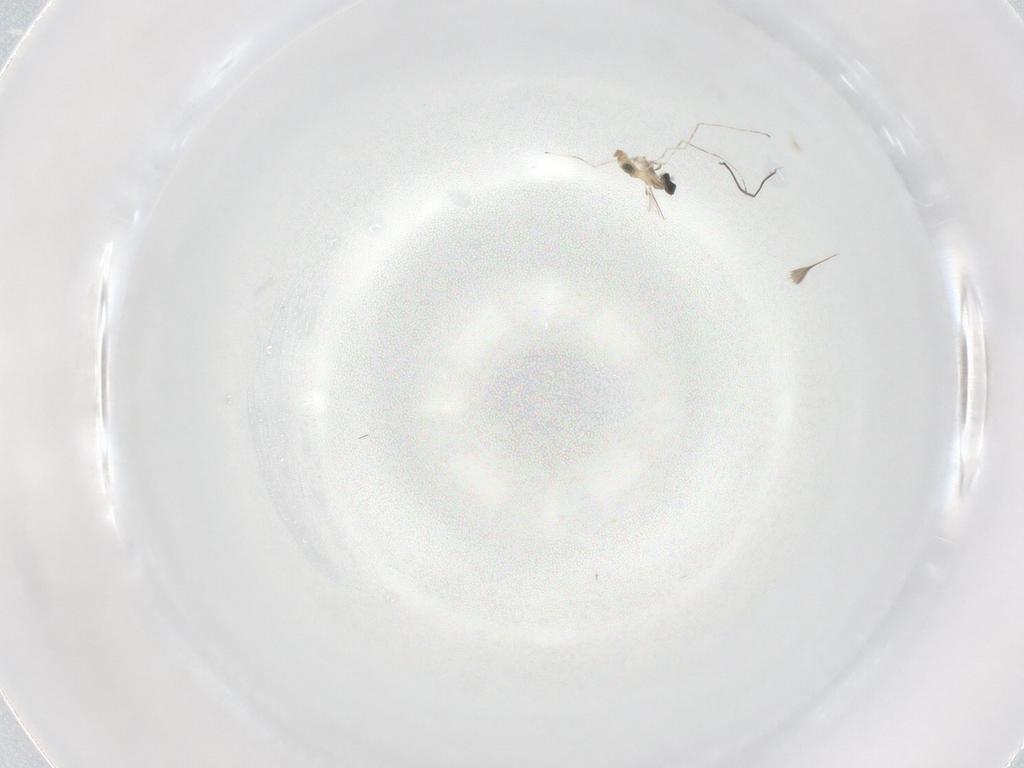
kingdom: Animalia
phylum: Arthropoda
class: Insecta
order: Diptera
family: Cecidomyiidae
